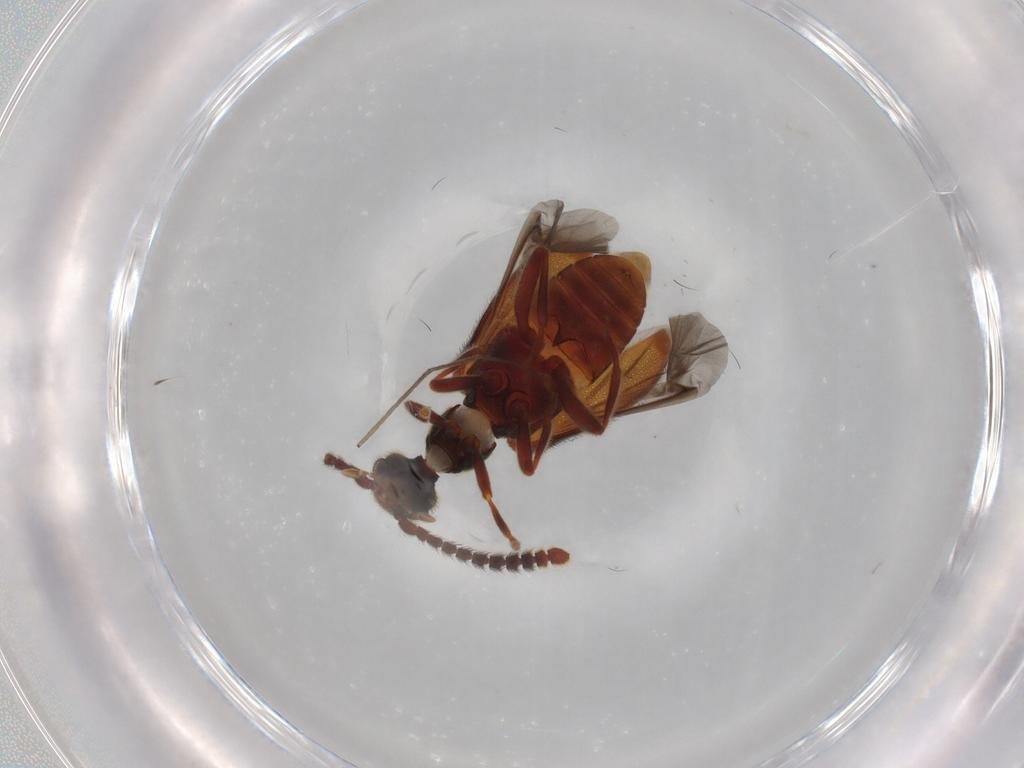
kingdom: Animalia
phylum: Arthropoda
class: Insecta
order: Coleoptera
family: Aderidae
